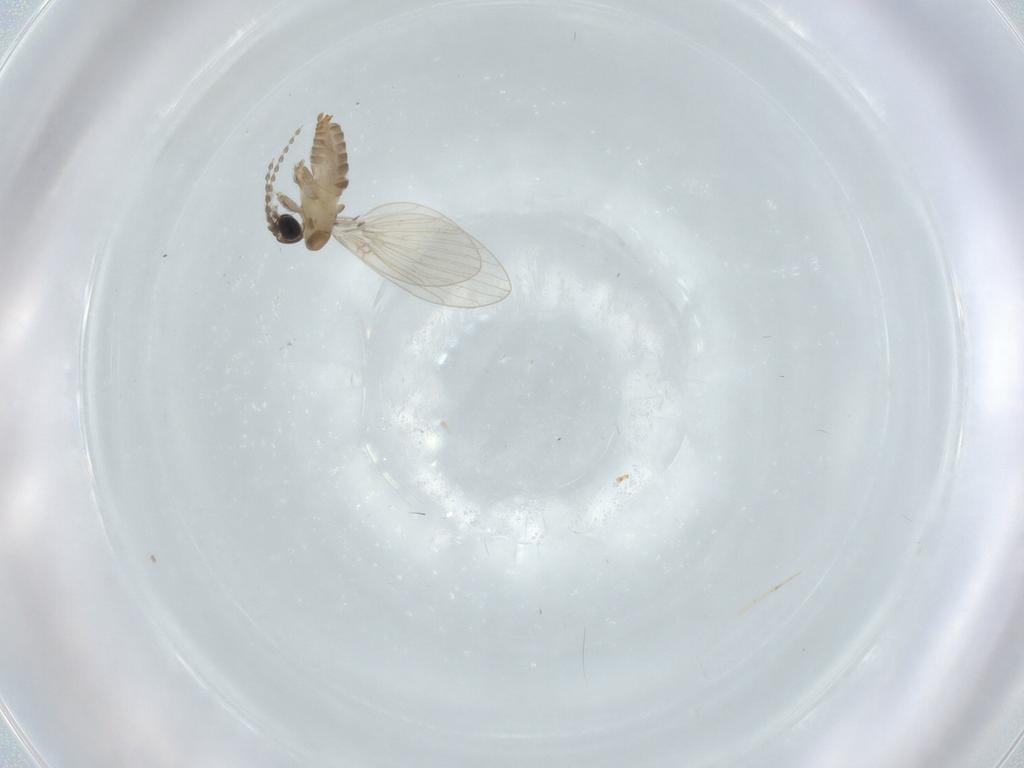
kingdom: Animalia
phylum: Arthropoda
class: Insecta
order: Diptera
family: Psychodidae
